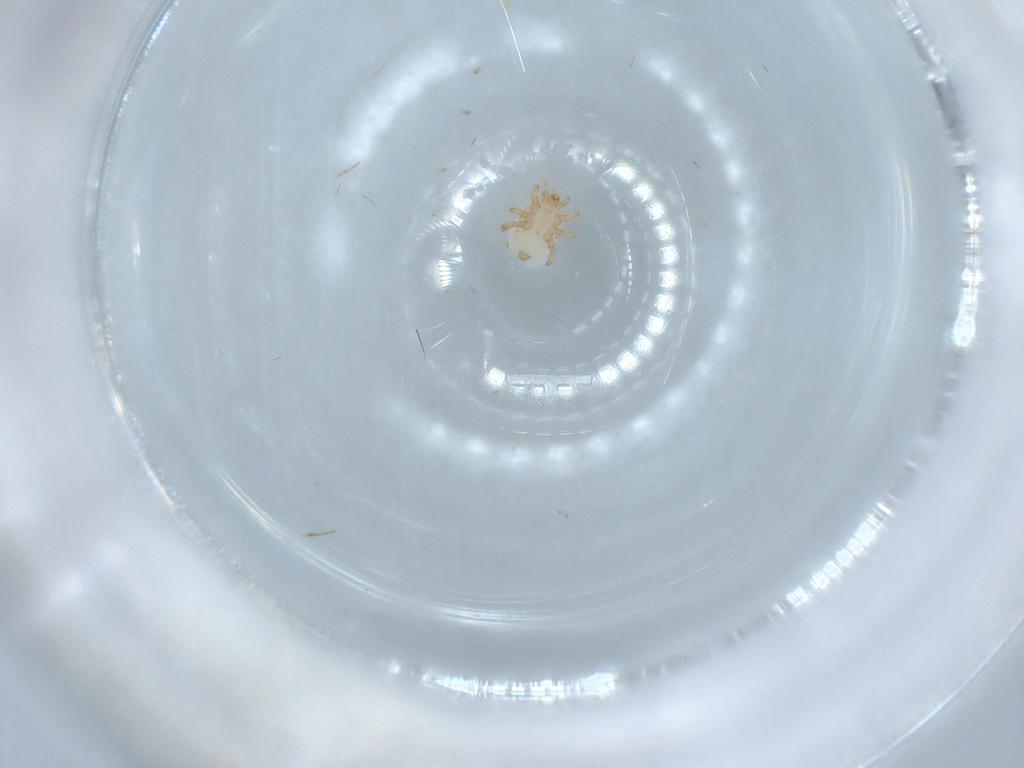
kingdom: Animalia
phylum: Arthropoda
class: Arachnida
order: Mesostigmata
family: Halolaelapidae
